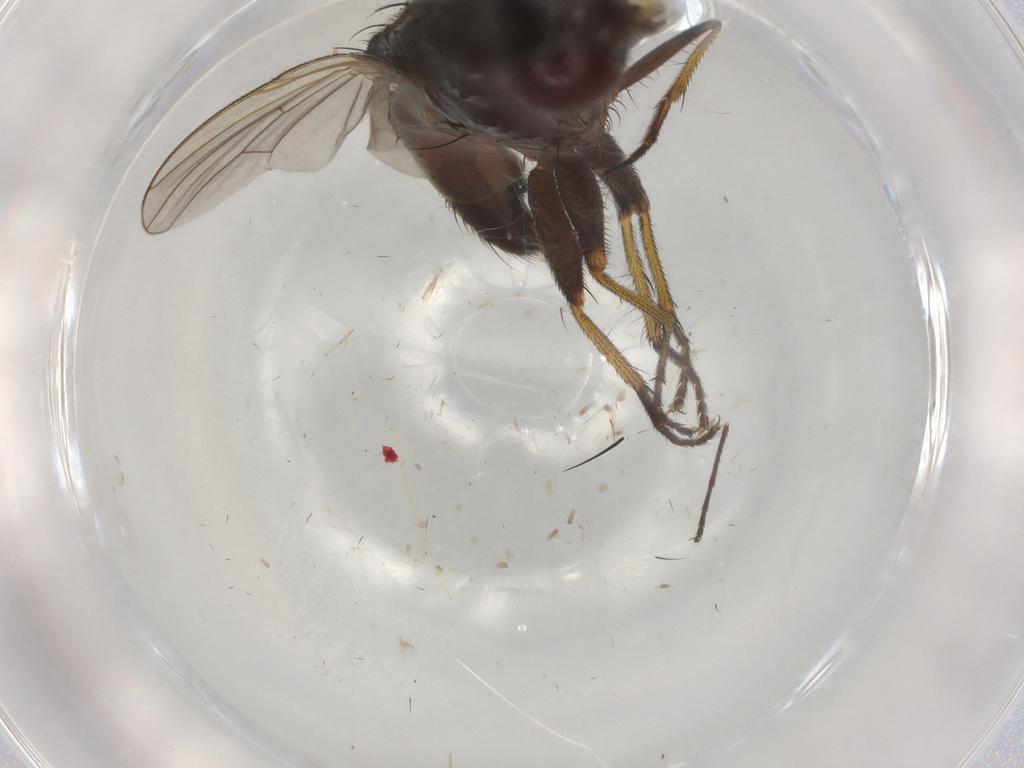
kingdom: Animalia
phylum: Arthropoda
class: Insecta
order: Diptera
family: Muscidae
